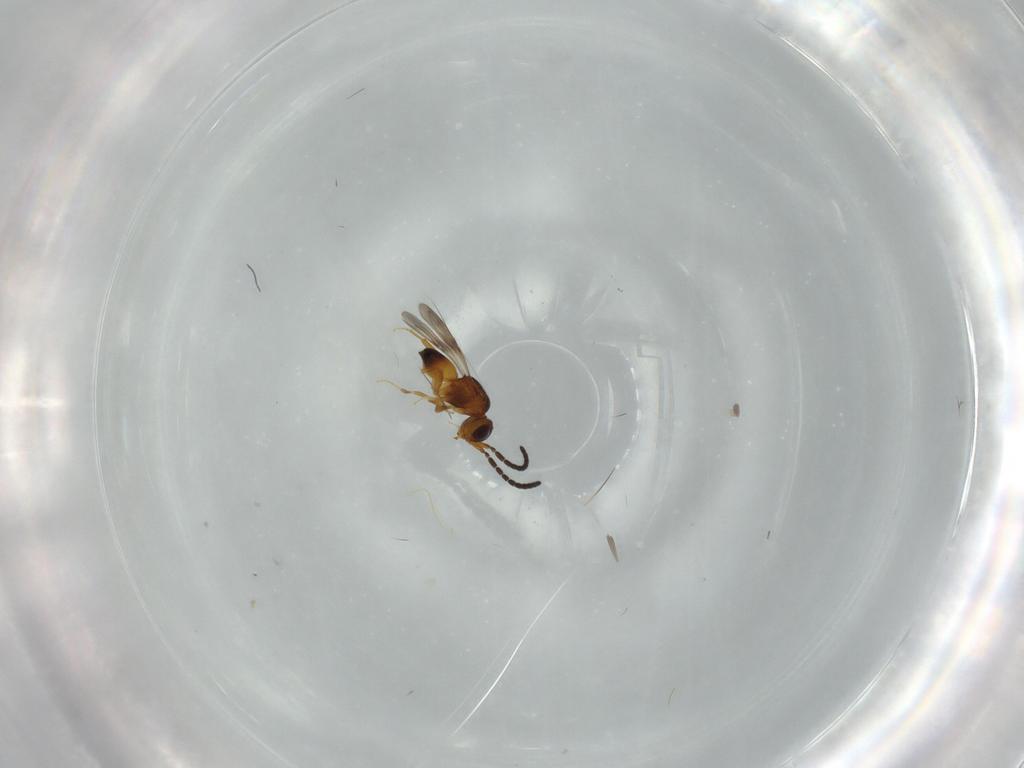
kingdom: Animalia
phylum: Arthropoda
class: Insecta
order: Hymenoptera
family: Ceraphronidae
